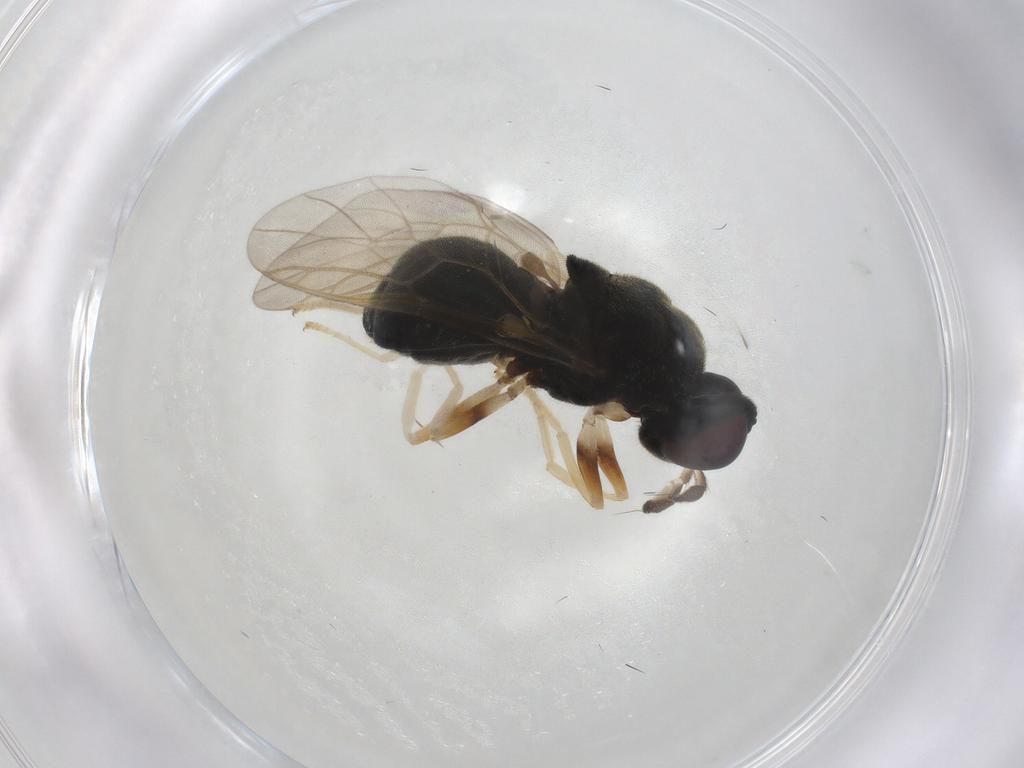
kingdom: Animalia
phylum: Arthropoda
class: Insecta
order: Diptera
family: Stratiomyidae
